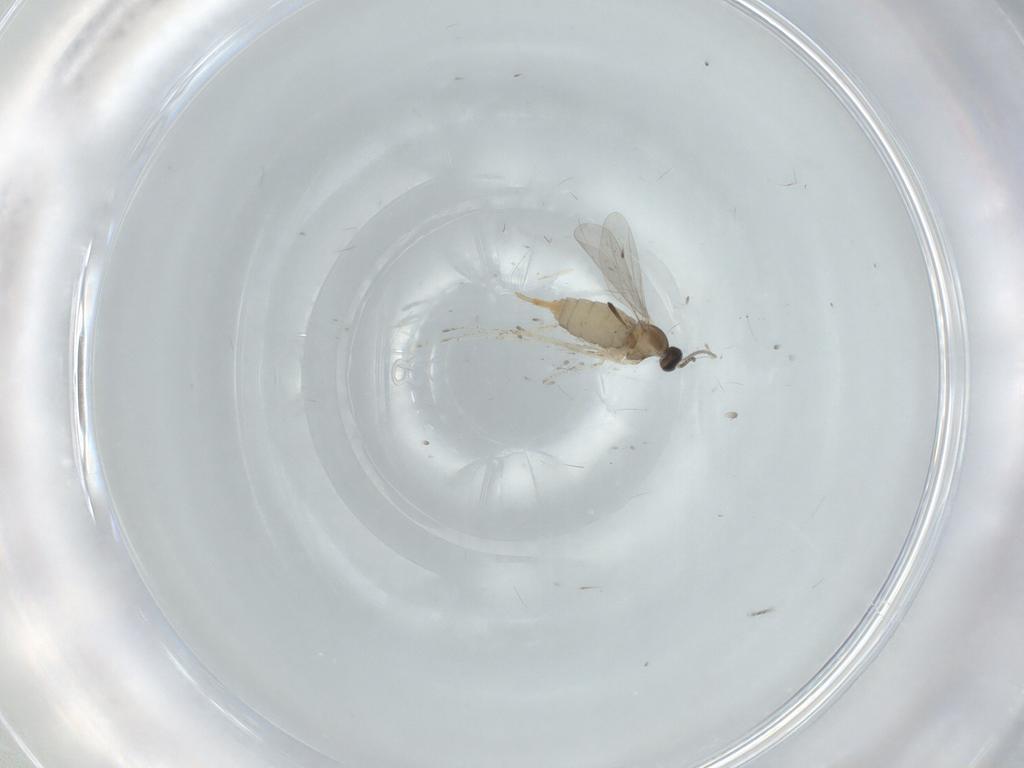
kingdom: Animalia
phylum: Arthropoda
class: Insecta
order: Diptera
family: Cecidomyiidae
